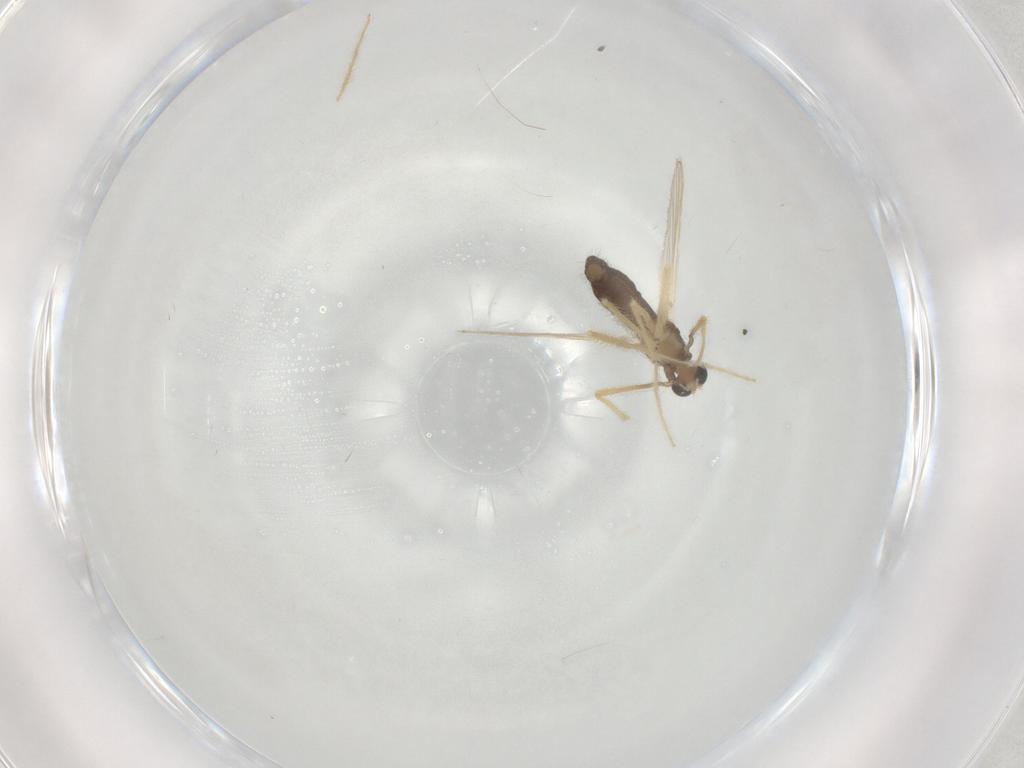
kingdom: Animalia
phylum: Arthropoda
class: Insecta
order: Diptera
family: Chironomidae
